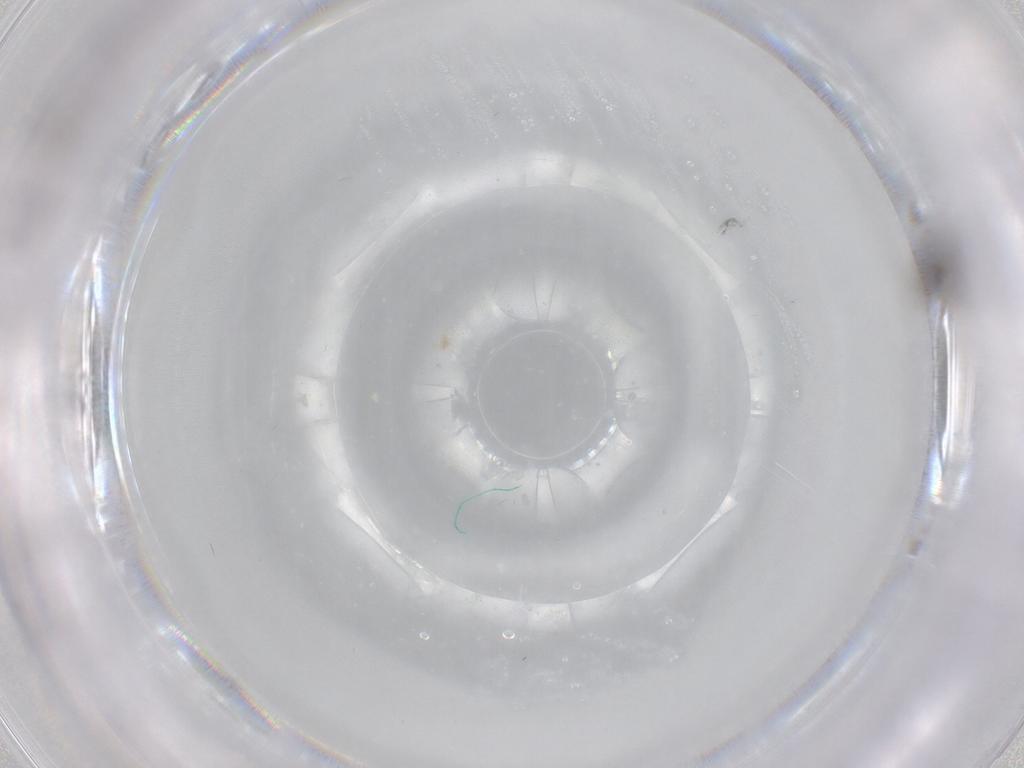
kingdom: Animalia
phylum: Arthropoda
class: Insecta
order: Diptera
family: Cecidomyiidae
